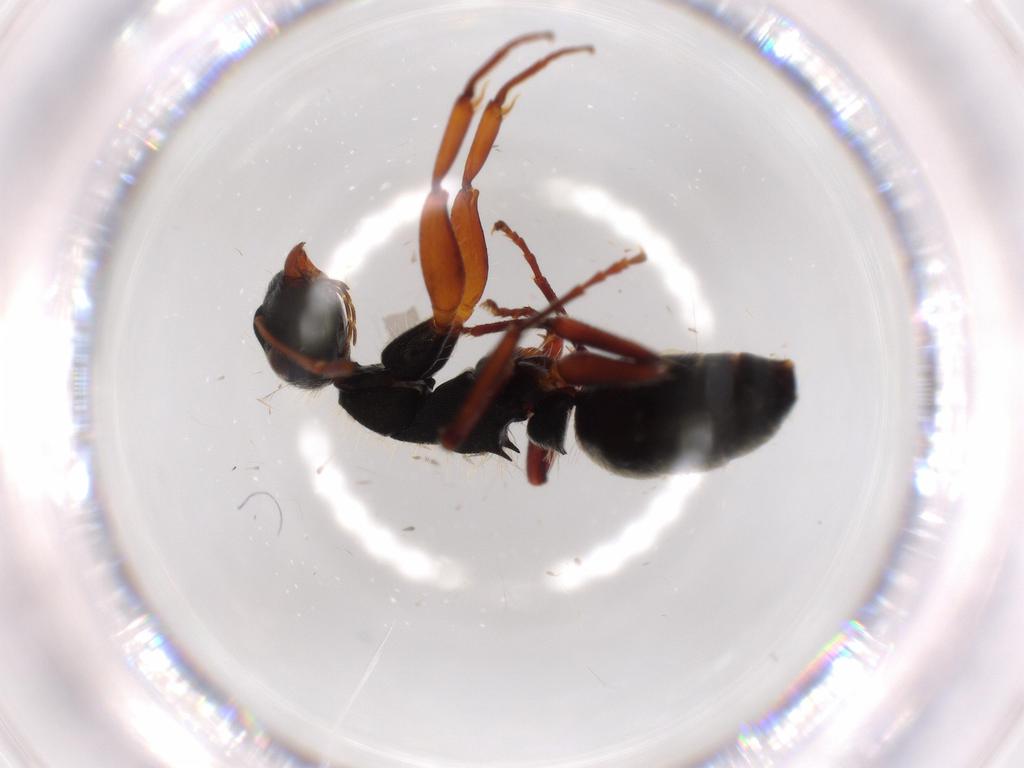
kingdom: Animalia
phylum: Arthropoda
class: Insecta
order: Hymenoptera
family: Formicidae
